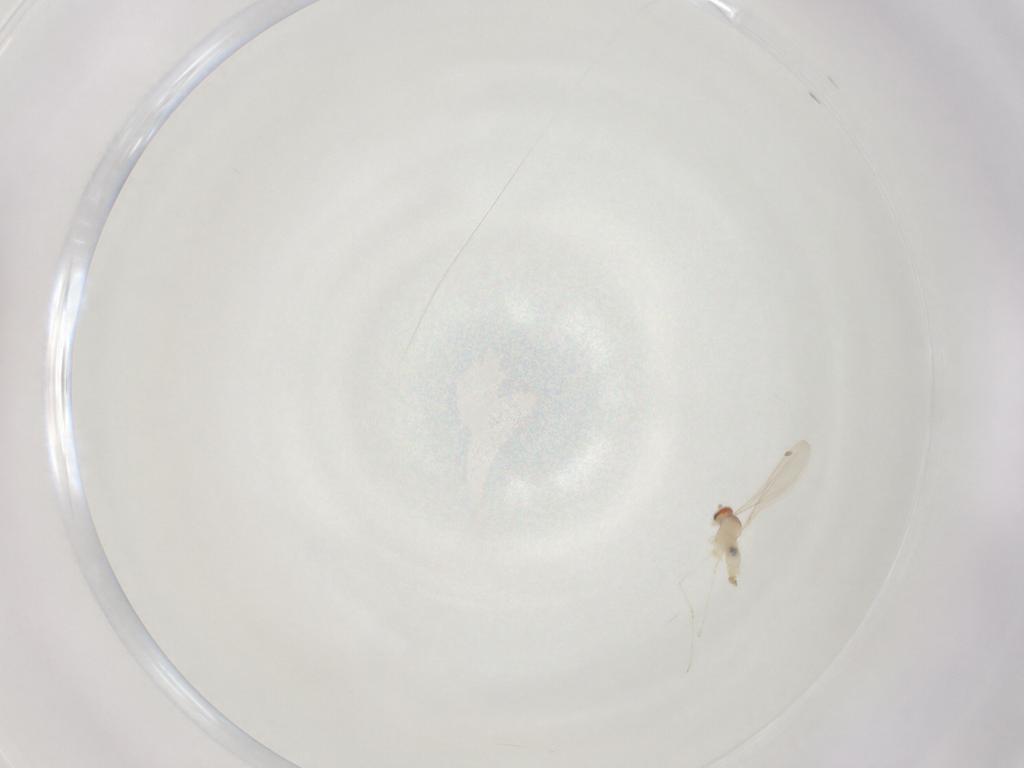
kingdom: Animalia
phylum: Arthropoda
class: Insecta
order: Diptera
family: Cecidomyiidae
